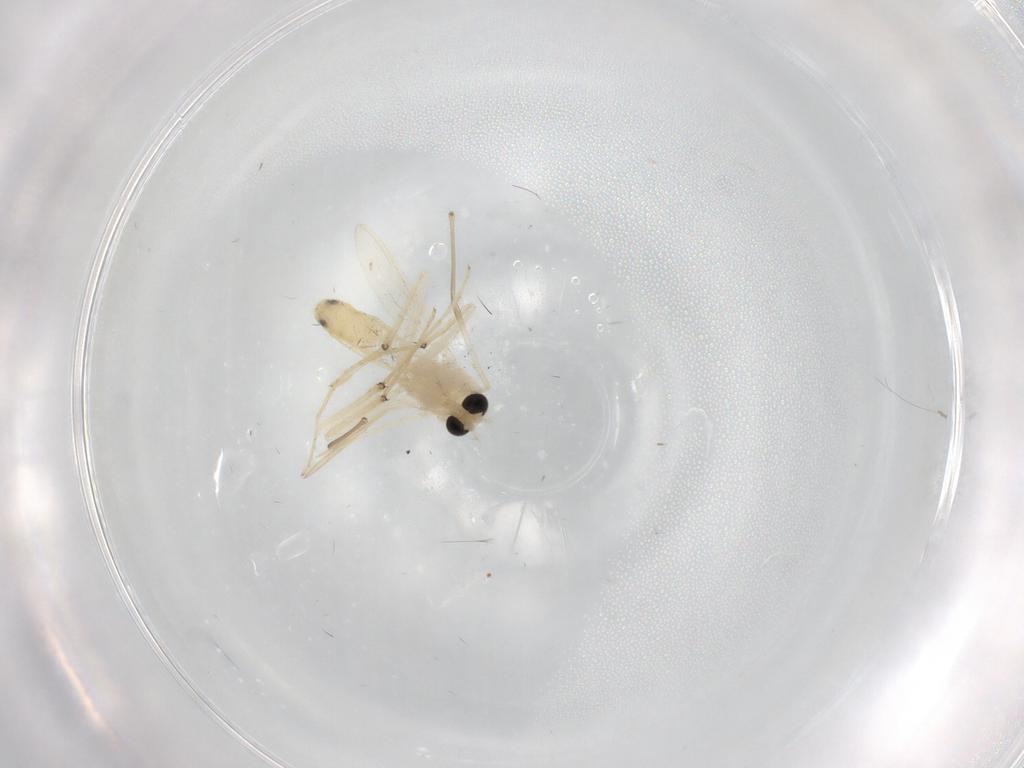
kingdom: Animalia
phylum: Arthropoda
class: Insecta
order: Diptera
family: Chironomidae
